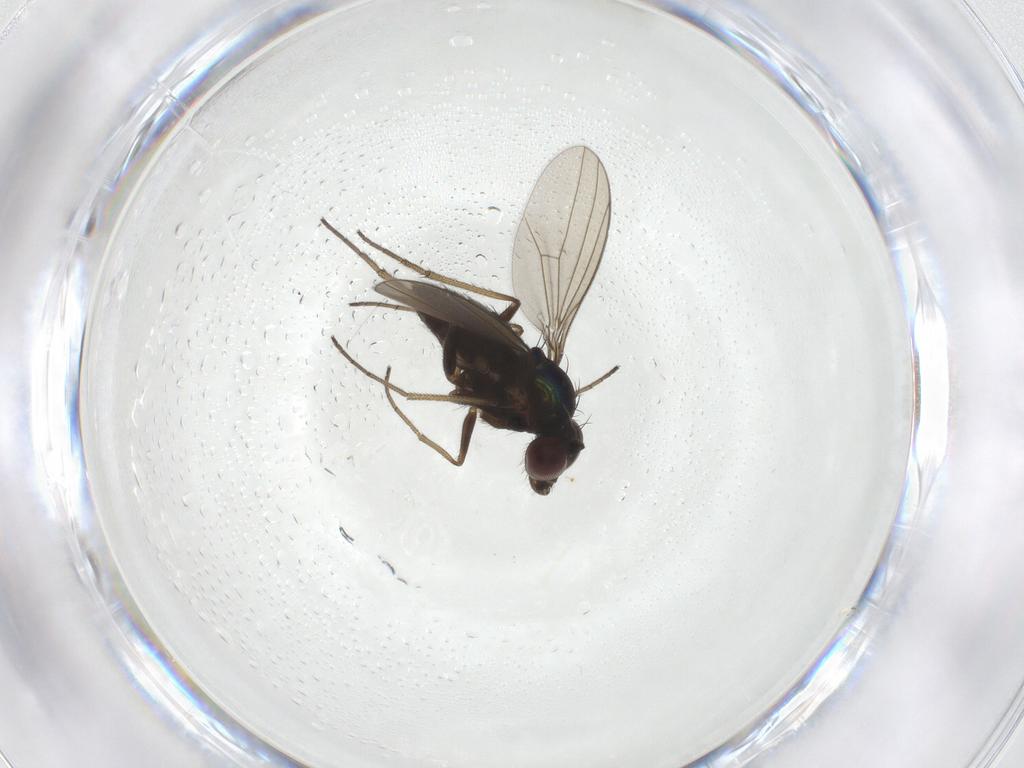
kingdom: Animalia
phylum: Arthropoda
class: Insecta
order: Diptera
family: Dolichopodidae
